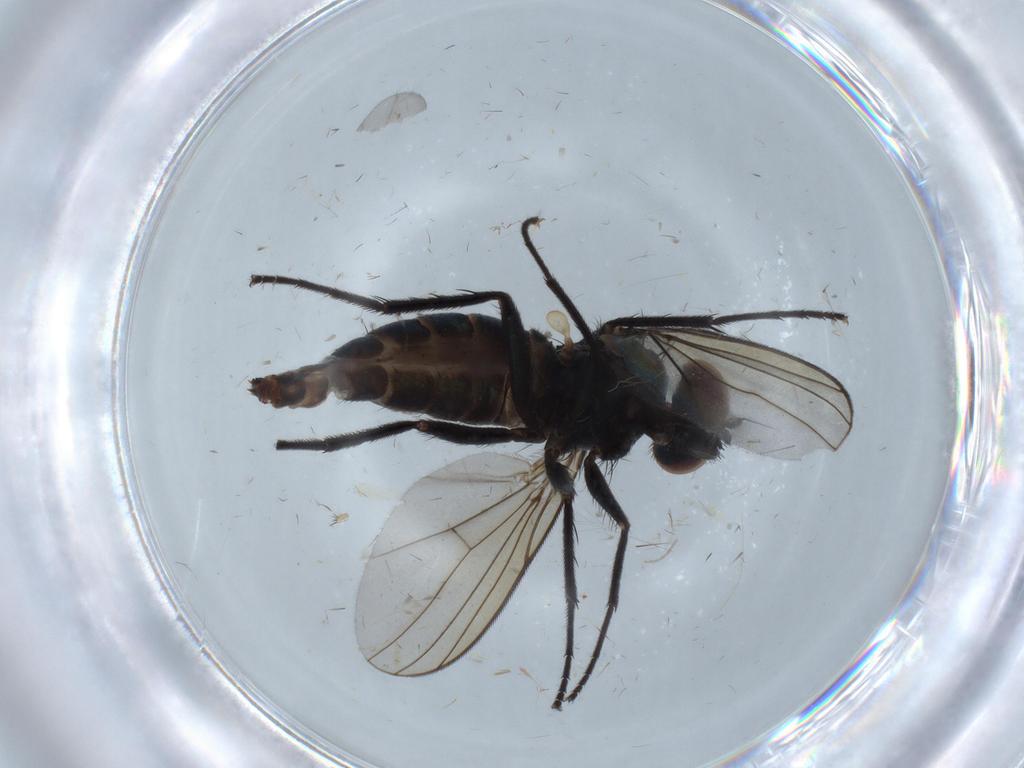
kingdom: Animalia
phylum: Arthropoda
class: Insecta
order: Diptera
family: Dolichopodidae
